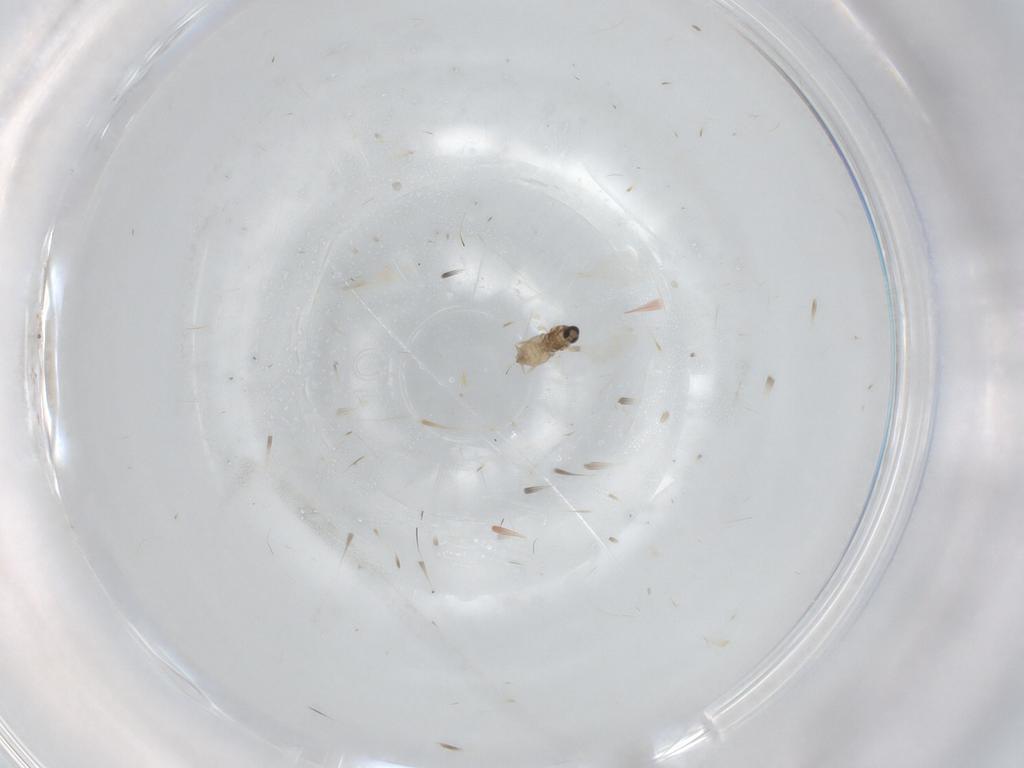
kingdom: Animalia
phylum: Arthropoda
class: Insecta
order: Diptera
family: Cecidomyiidae
